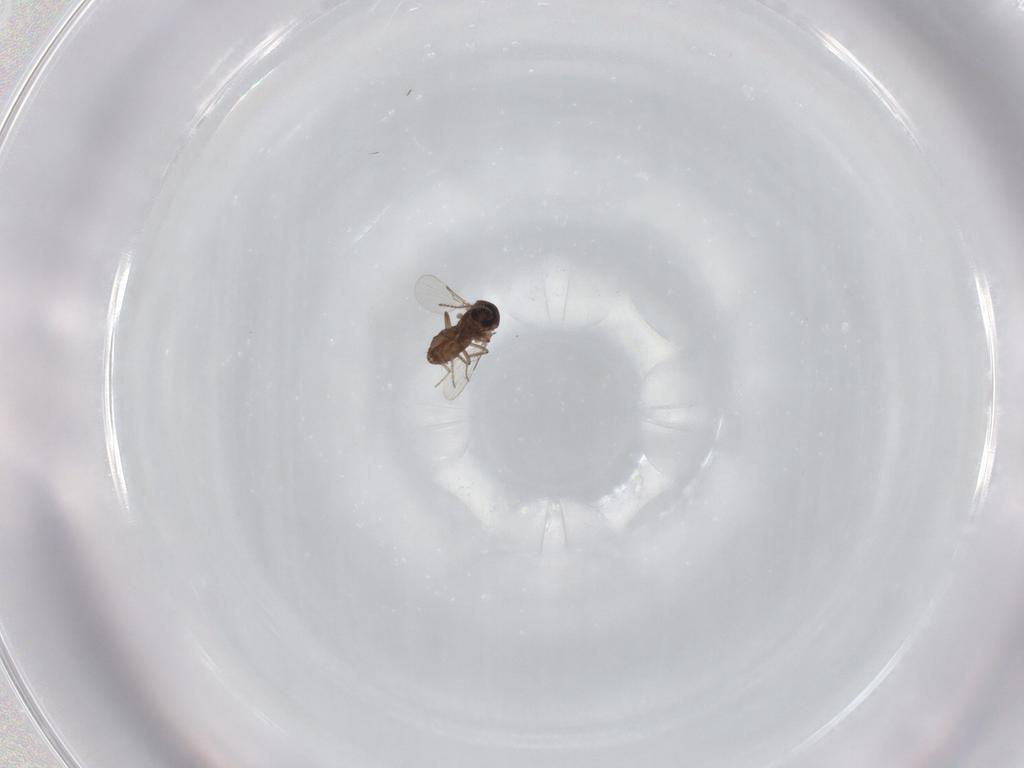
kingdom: Animalia
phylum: Arthropoda
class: Insecta
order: Diptera
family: Ceratopogonidae
